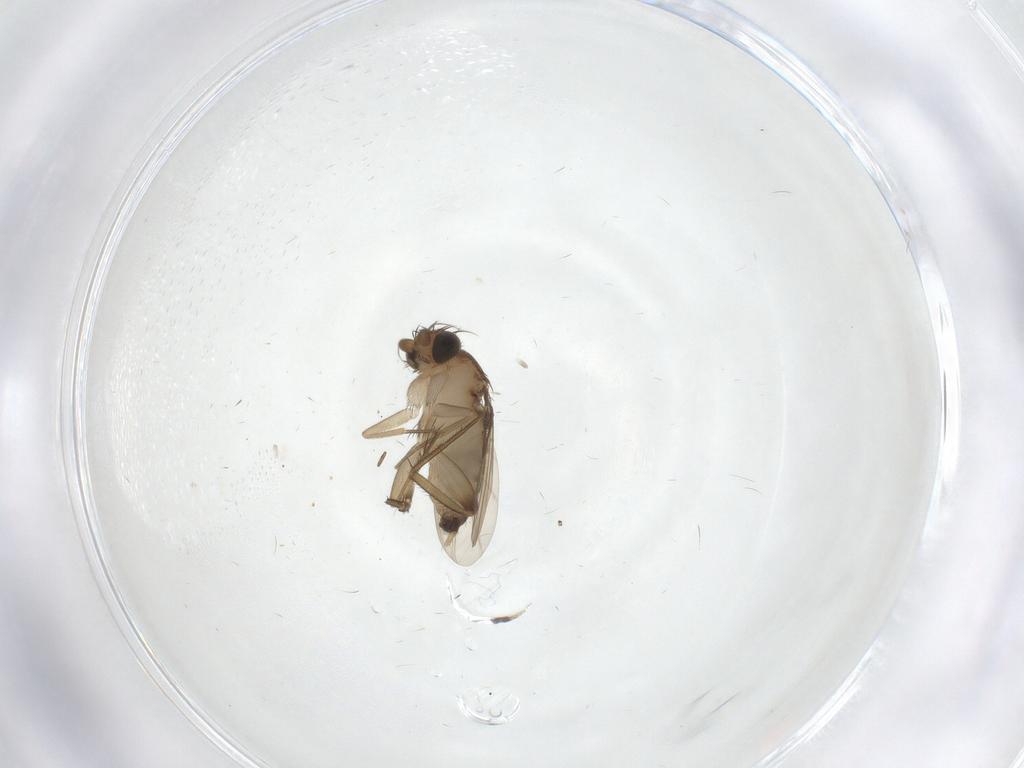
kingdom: Animalia
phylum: Arthropoda
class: Insecta
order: Diptera
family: Phoridae
